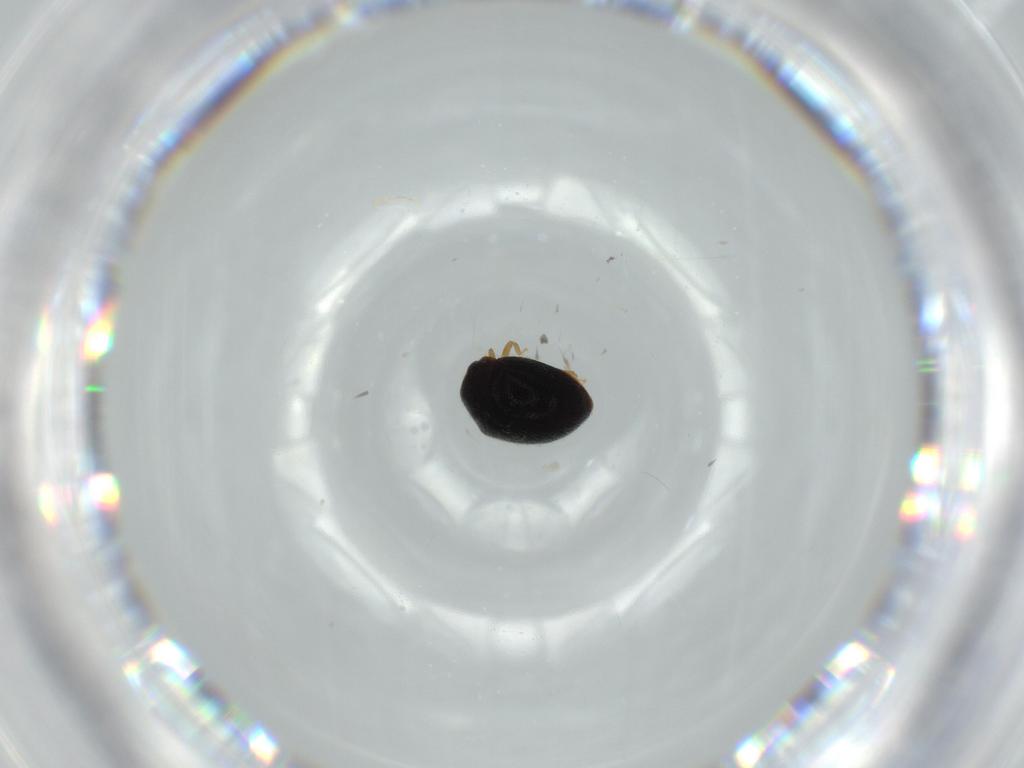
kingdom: Animalia
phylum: Arthropoda
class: Insecta
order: Coleoptera
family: Coccinellidae
